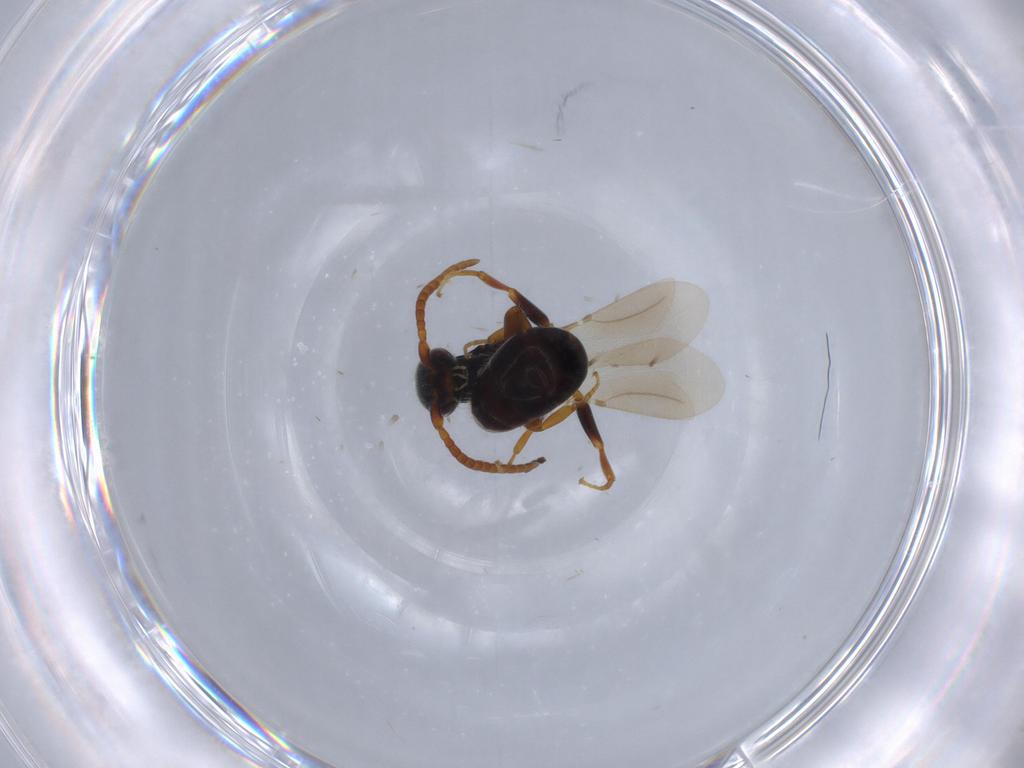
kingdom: Animalia
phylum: Arthropoda
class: Insecta
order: Hymenoptera
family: Bethylidae
